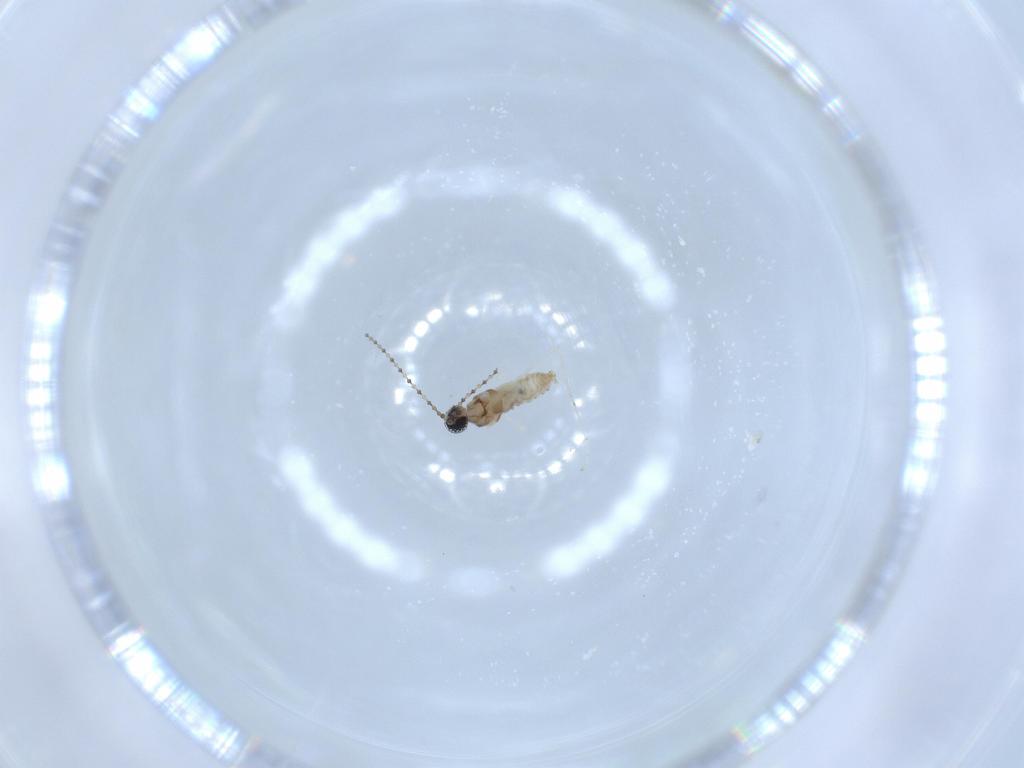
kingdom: Animalia
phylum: Arthropoda
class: Insecta
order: Diptera
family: Cecidomyiidae
